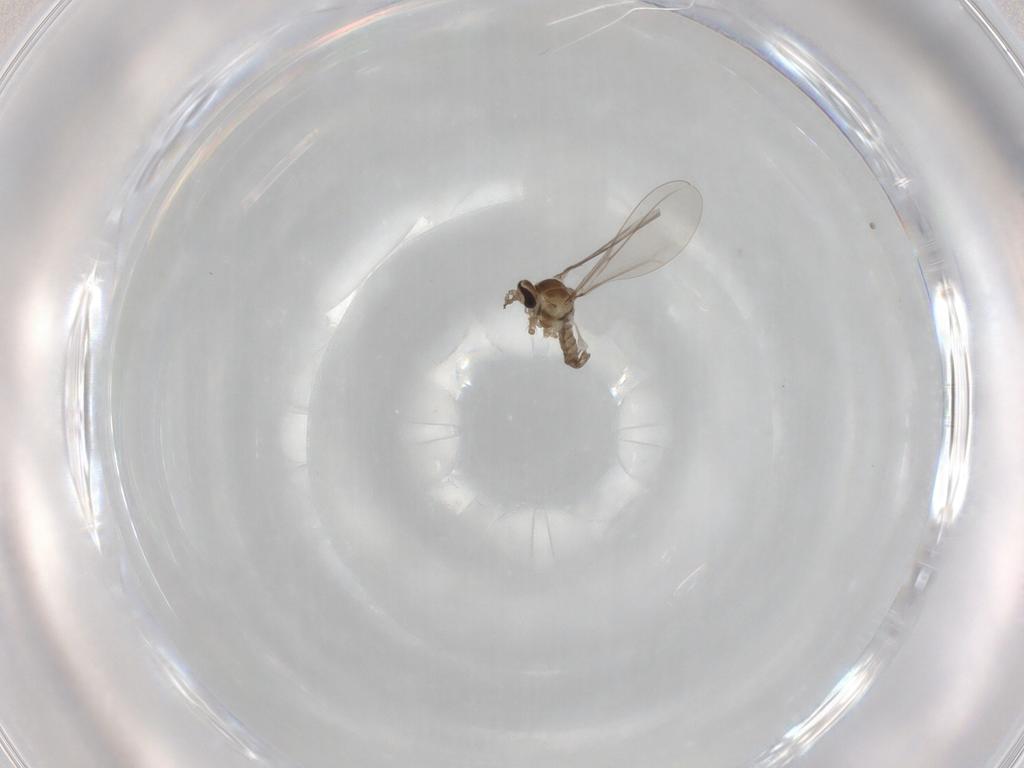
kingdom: Animalia
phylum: Arthropoda
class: Insecta
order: Diptera
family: Cecidomyiidae
